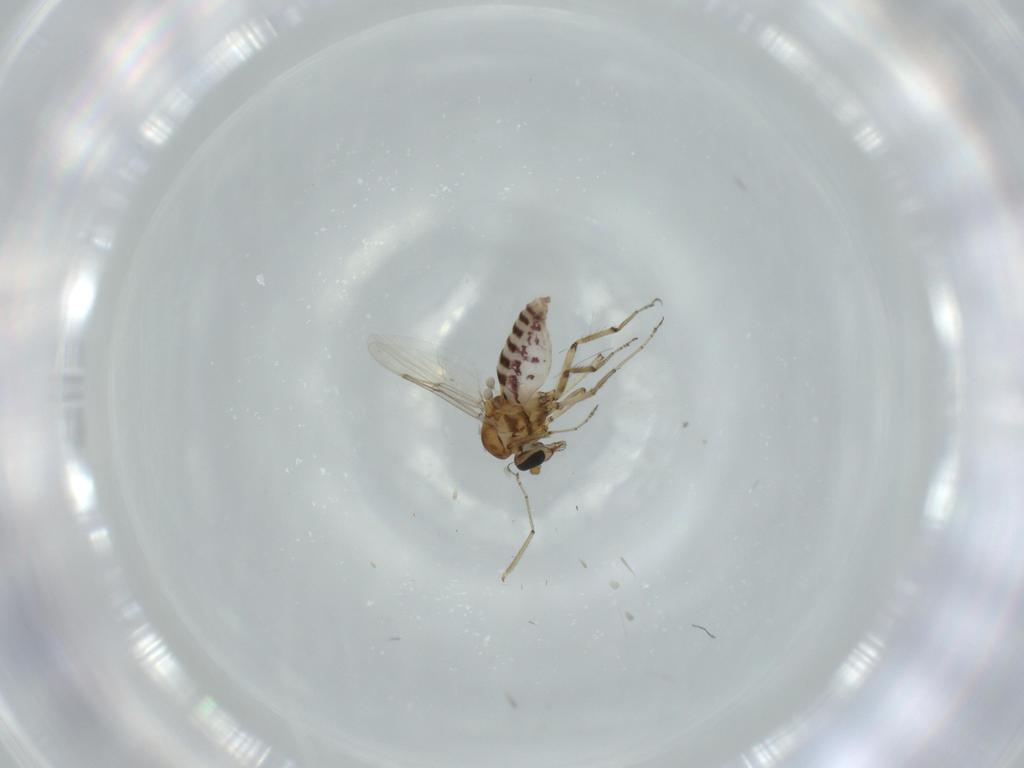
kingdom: Animalia
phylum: Arthropoda
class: Insecta
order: Diptera
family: Ceratopogonidae
